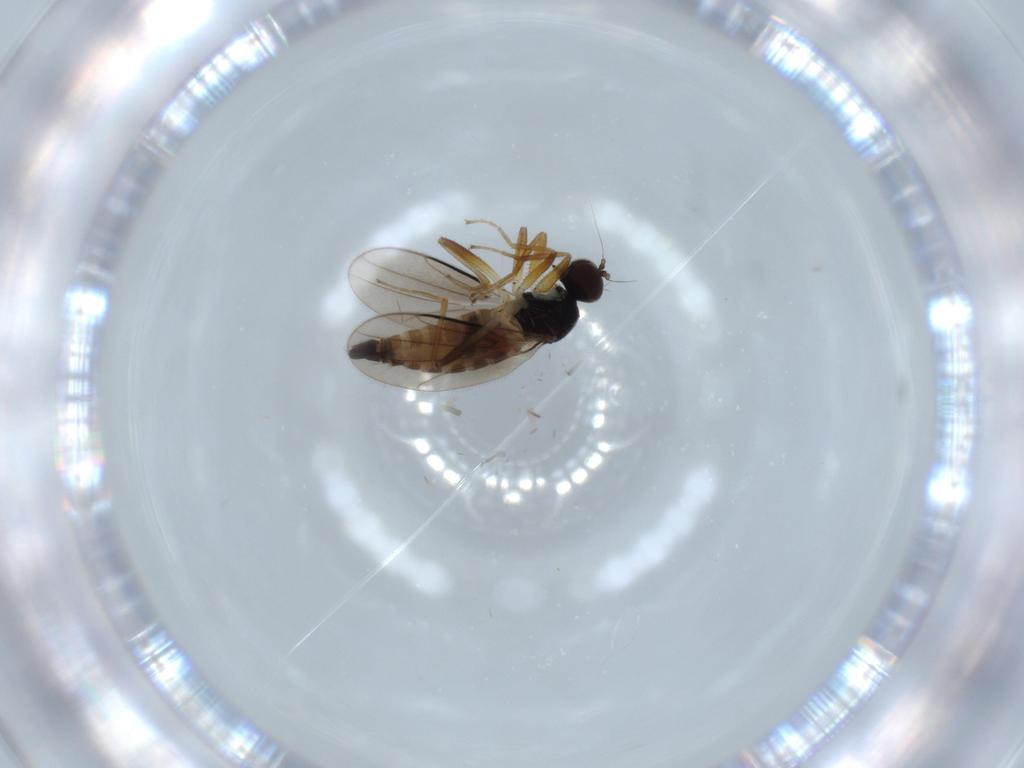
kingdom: Animalia
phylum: Arthropoda
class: Insecta
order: Diptera
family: Hybotidae
